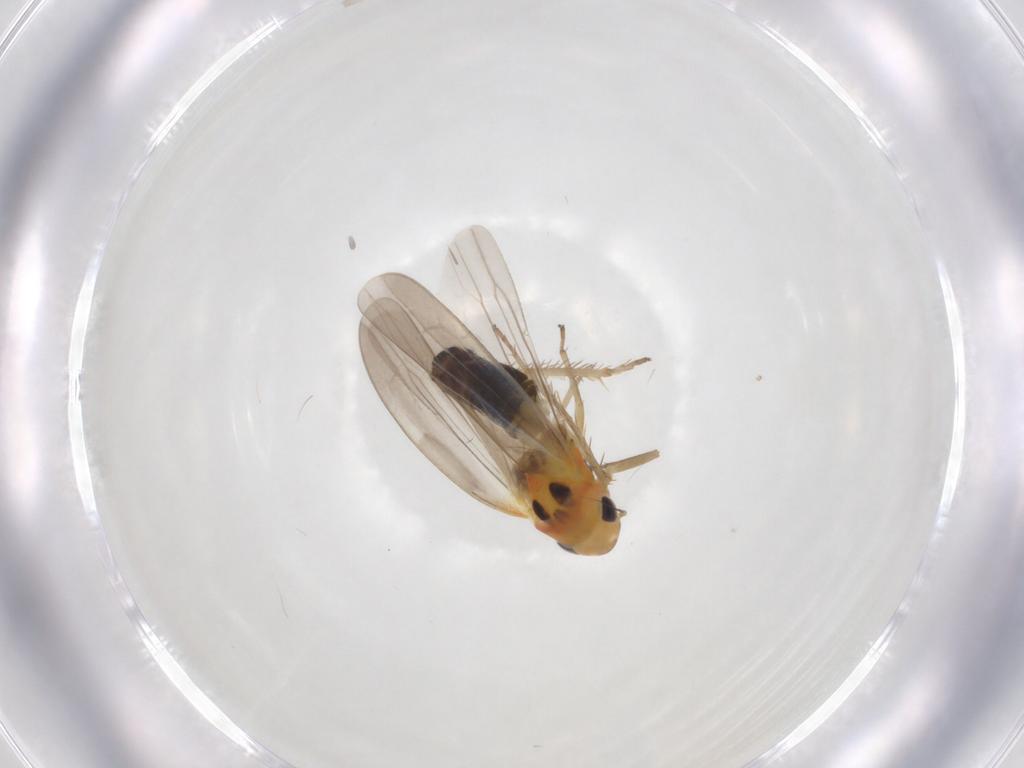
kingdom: Animalia
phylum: Arthropoda
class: Insecta
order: Hemiptera
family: Cicadellidae
